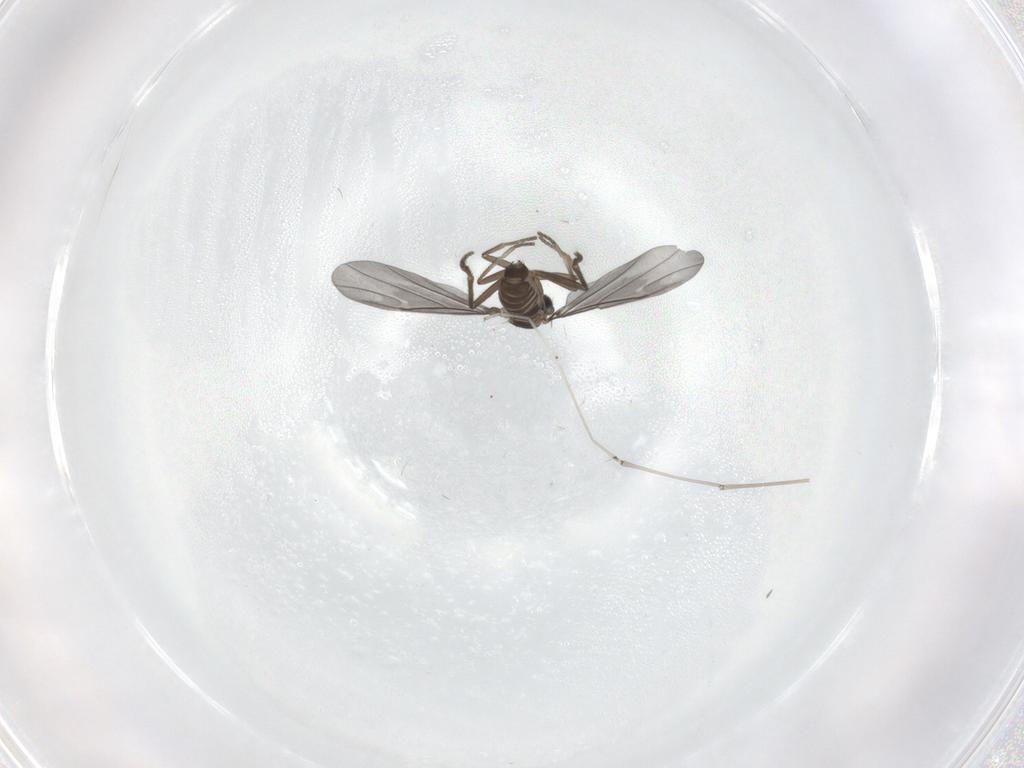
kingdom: Animalia
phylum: Arthropoda
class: Insecta
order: Diptera
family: Phoridae
